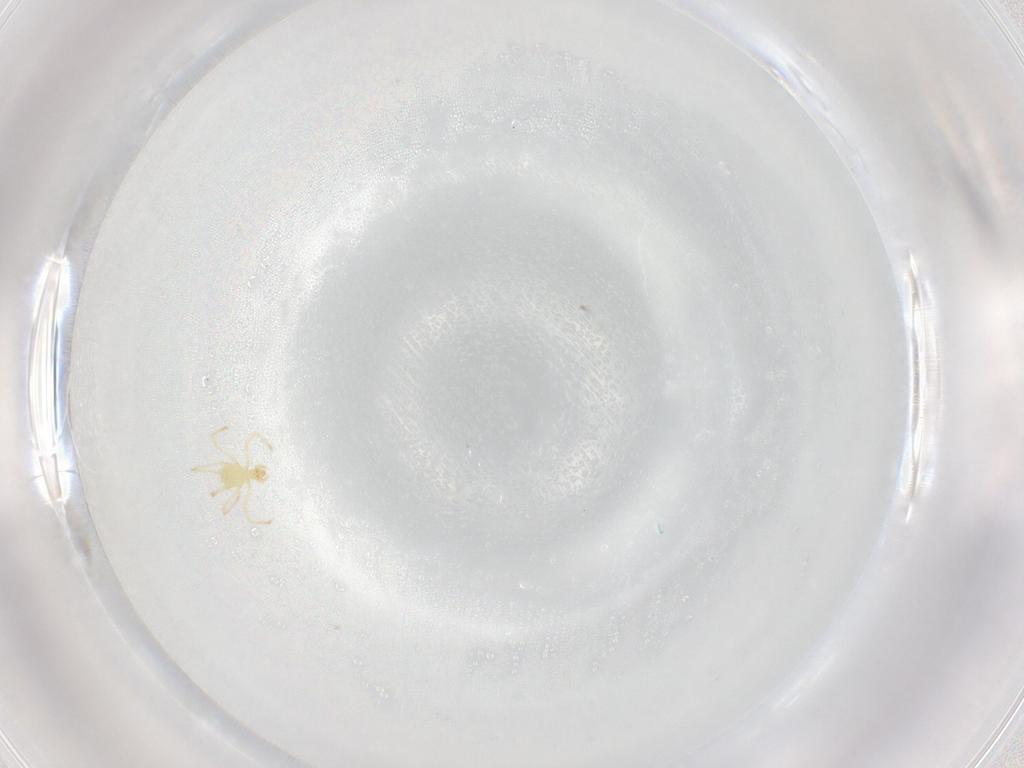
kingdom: Animalia
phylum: Arthropoda
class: Arachnida
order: Trombidiformes
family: Erythraeidae
